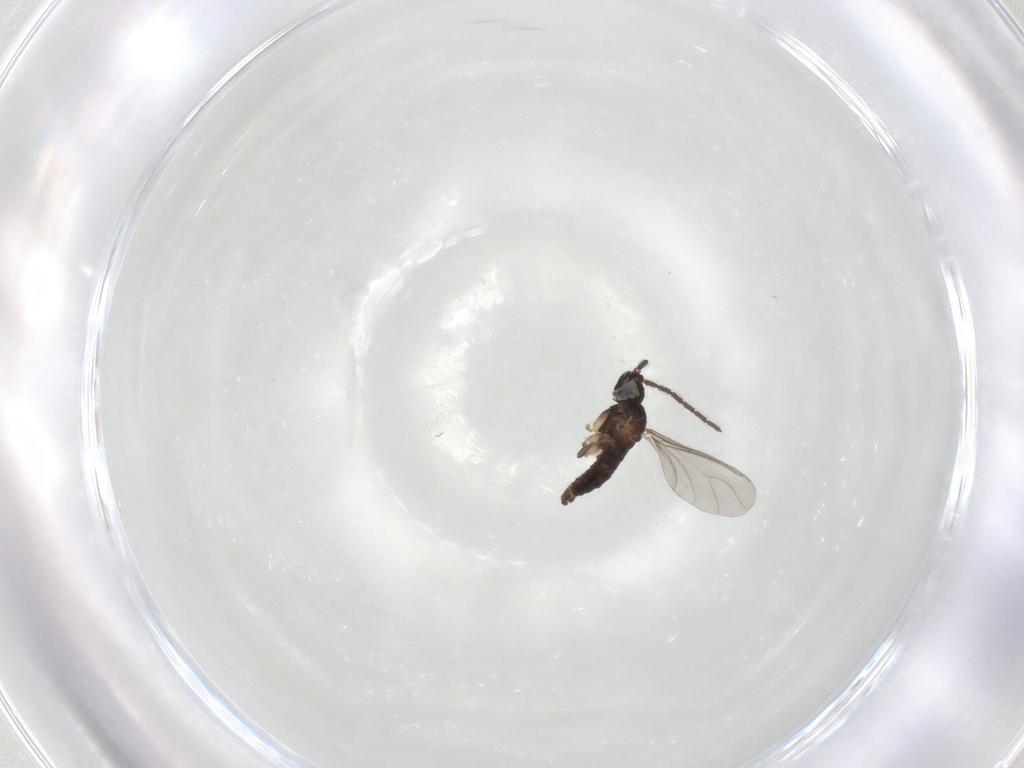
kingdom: Animalia
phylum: Arthropoda
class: Insecta
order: Diptera
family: Sciaridae
